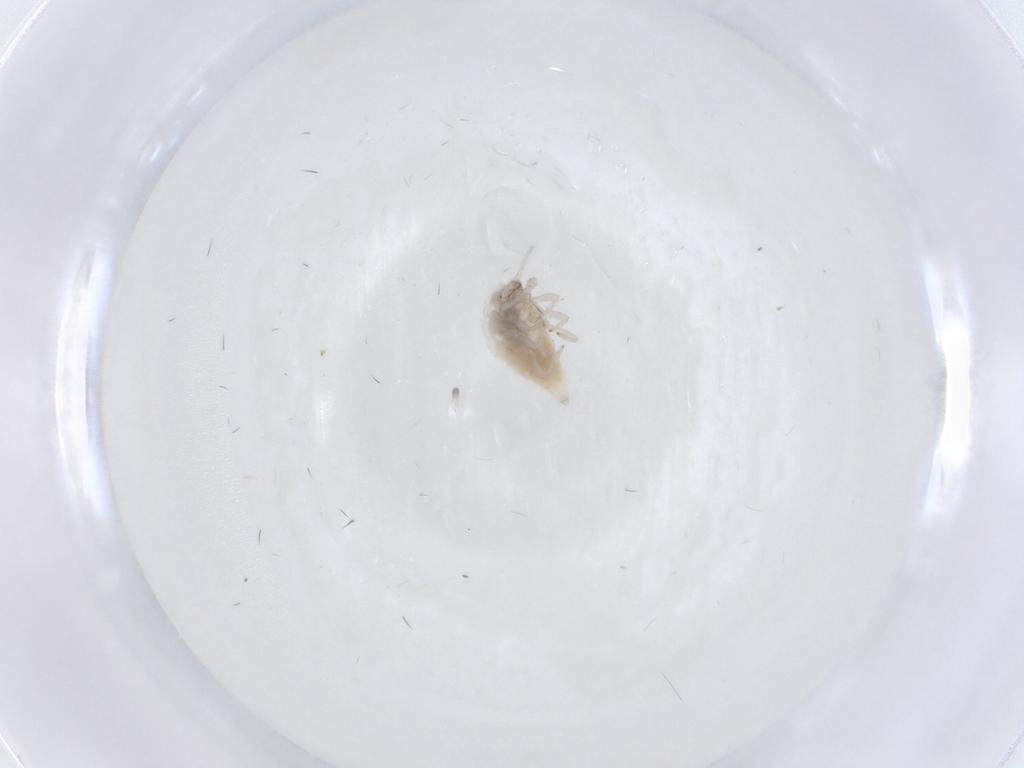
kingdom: Animalia
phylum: Arthropoda
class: Insecta
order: Neuroptera
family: Coniopterygidae
